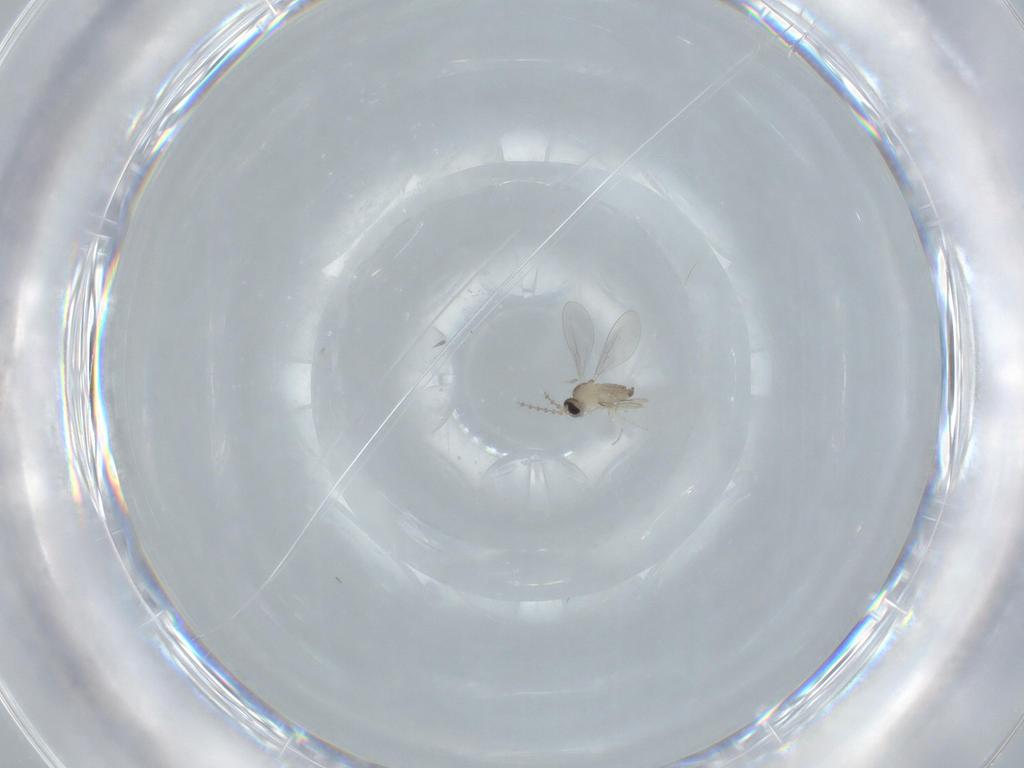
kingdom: Animalia
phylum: Arthropoda
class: Insecta
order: Diptera
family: Cecidomyiidae
